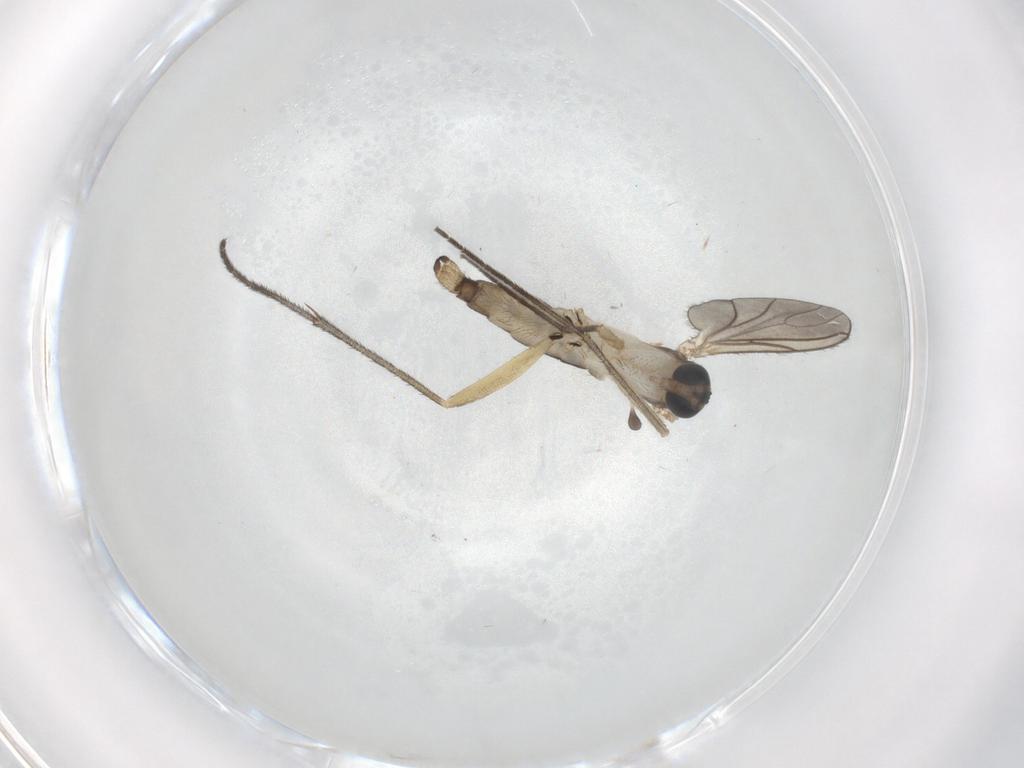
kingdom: Animalia
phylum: Arthropoda
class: Insecta
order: Diptera
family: Sciaridae
